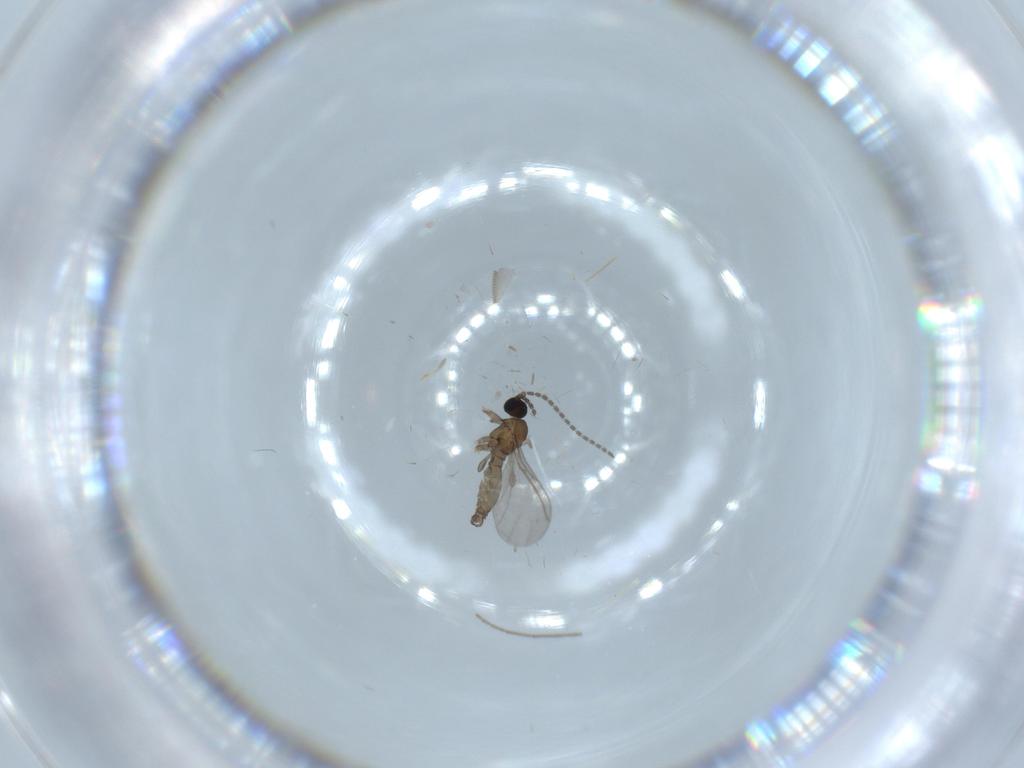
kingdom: Animalia
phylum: Arthropoda
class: Insecta
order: Diptera
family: Sciaridae
